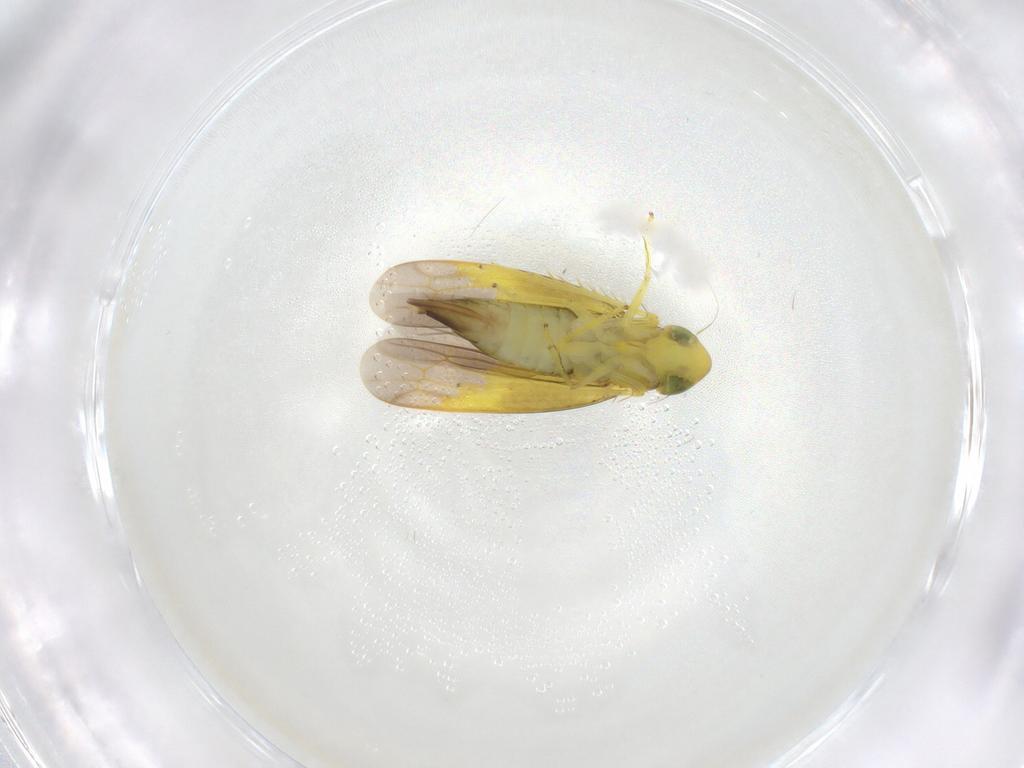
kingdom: Animalia
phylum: Arthropoda
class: Insecta
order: Hemiptera
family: Cicadellidae
